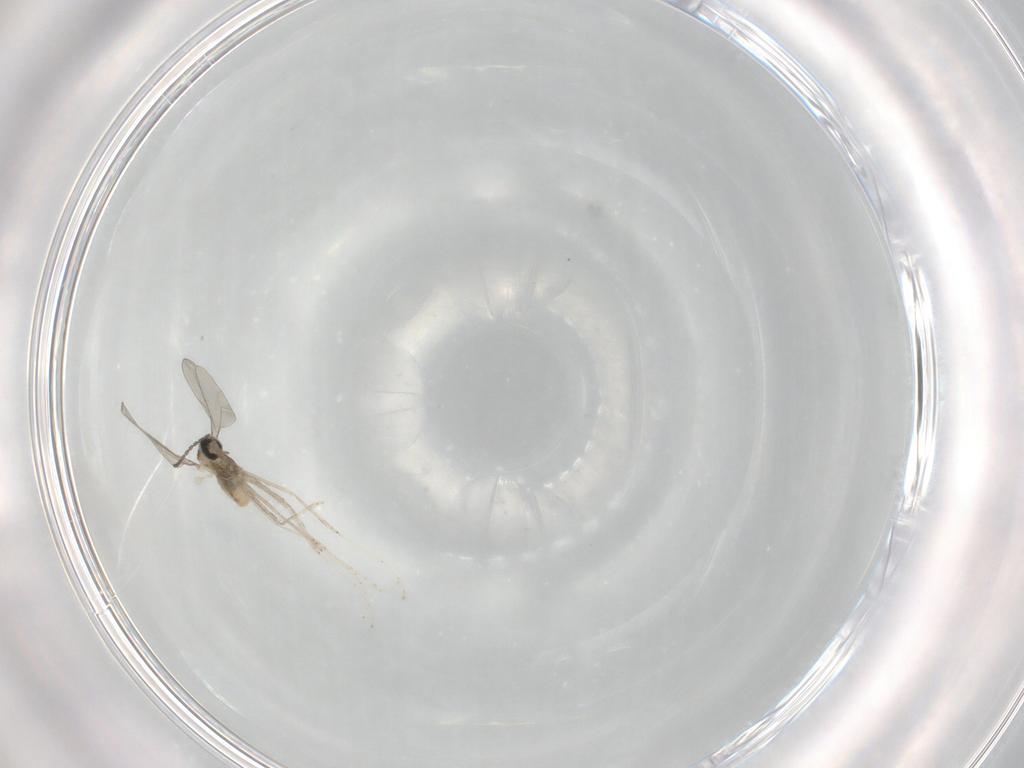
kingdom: Animalia
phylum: Arthropoda
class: Insecta
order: Diptera
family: Cecidomyiidae
